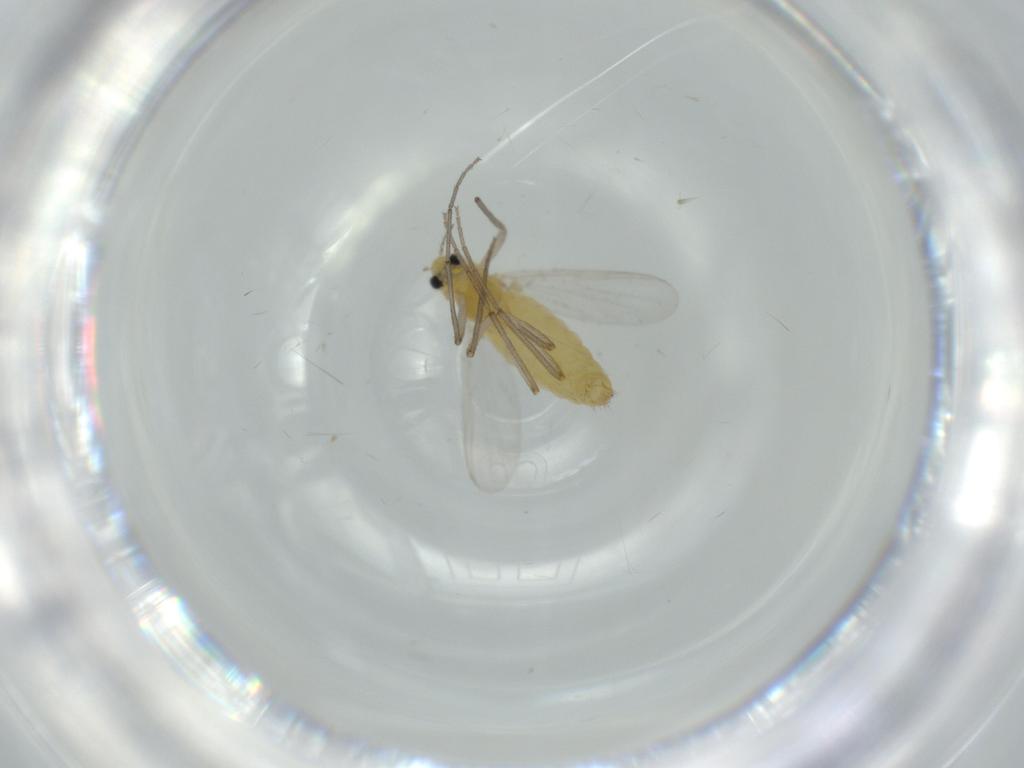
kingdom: Animalia
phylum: Arthropoda
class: Insecta
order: Diptera
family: Chironomidae
